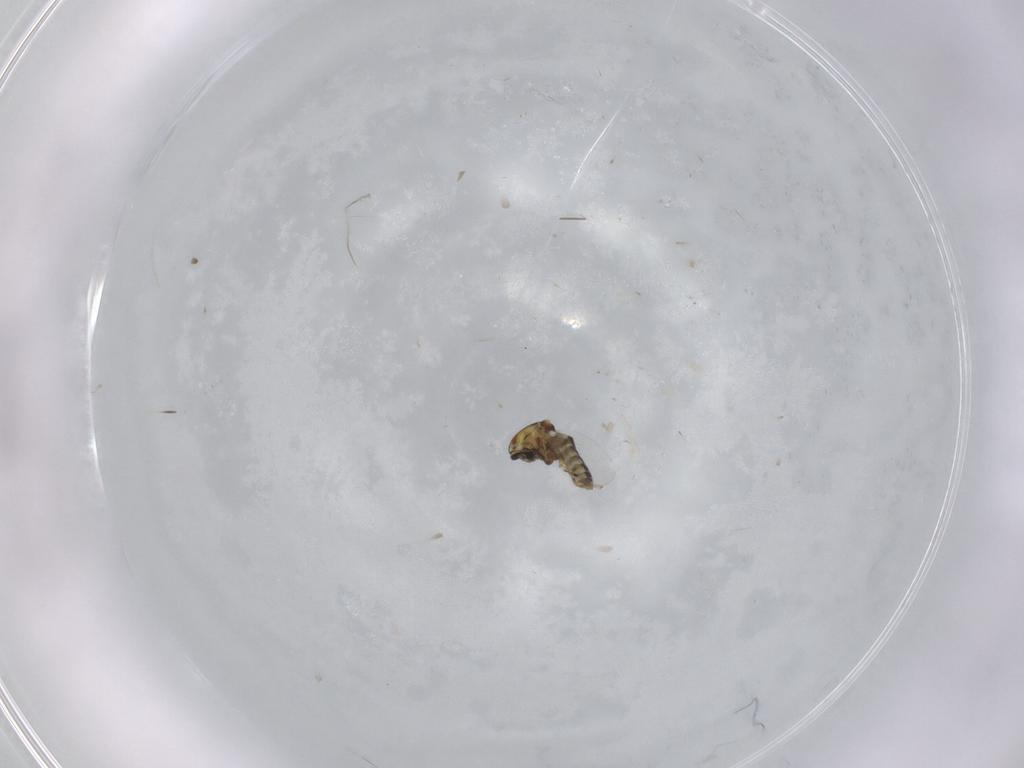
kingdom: Animalia
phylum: Arthropoda
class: Insecta
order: Diptera
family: Ceratopogonidae
